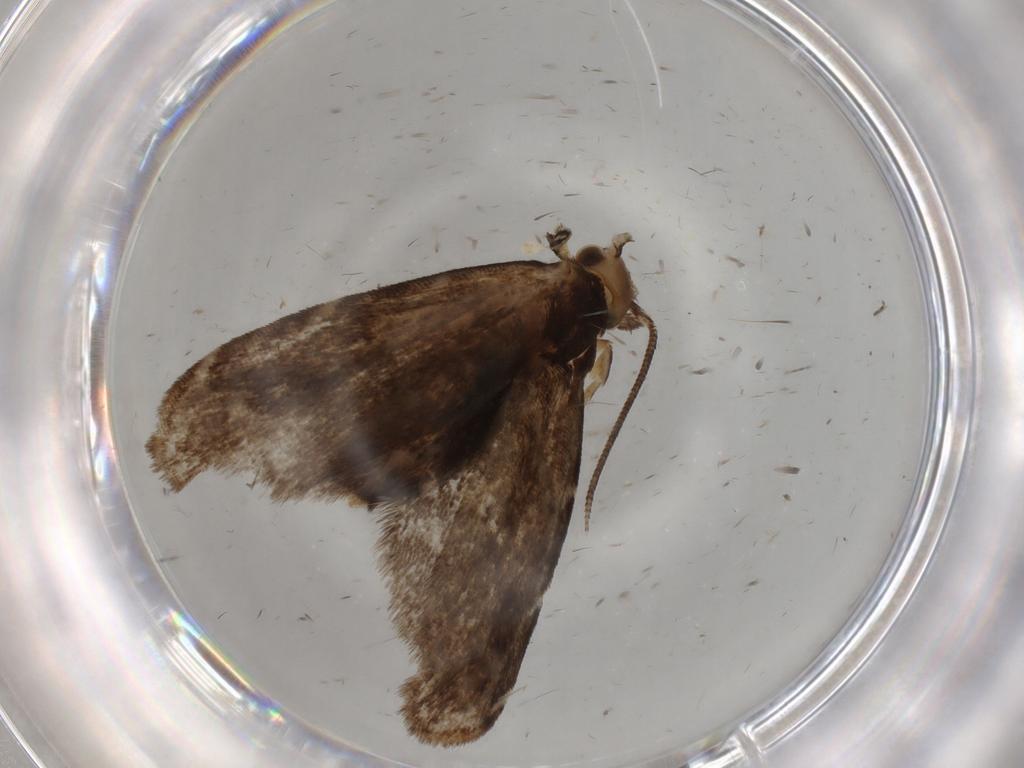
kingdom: Animalia
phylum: Arthropoda
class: Insecta
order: Lepidoptera
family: Dryadaulidae
